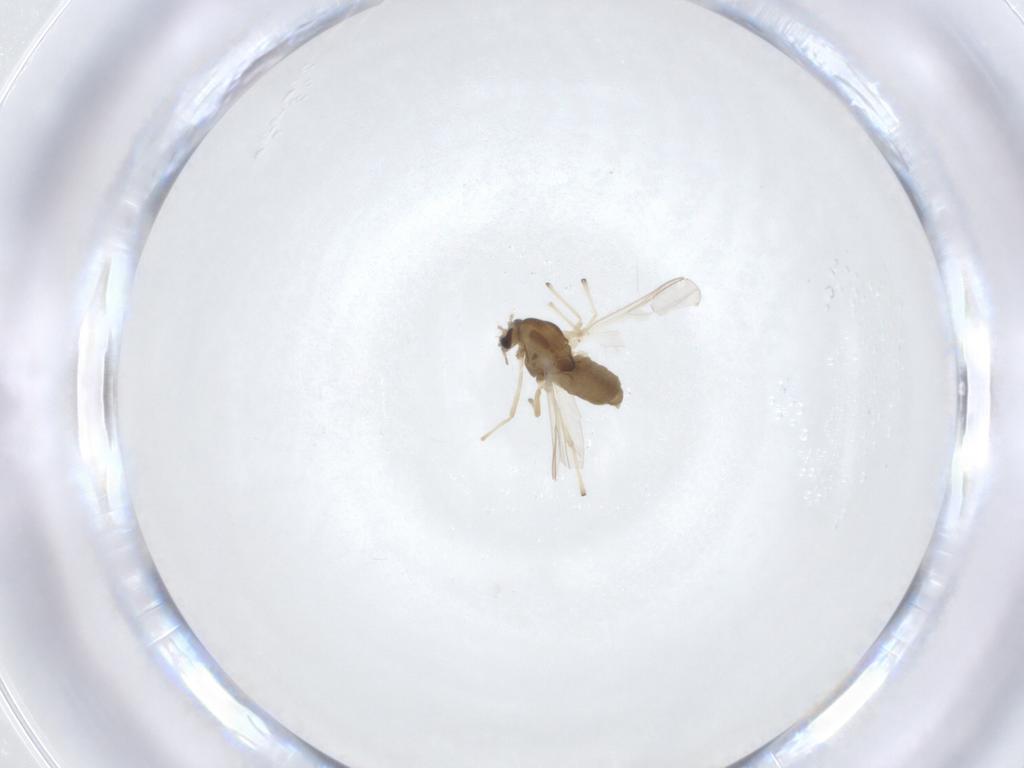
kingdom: Animalia
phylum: Arthropoda
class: Insecta
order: Diptera
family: Chironomidae
